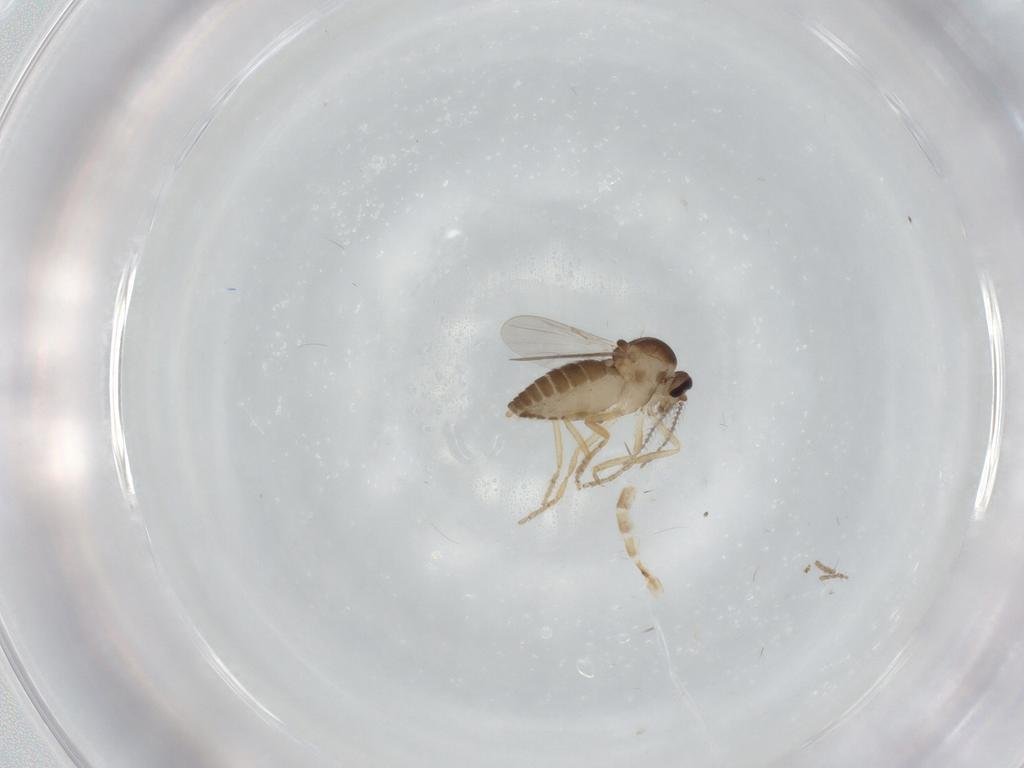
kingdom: Animalia
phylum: Arthropoda
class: Insecta
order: Diptera
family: Ceratopogonidae
